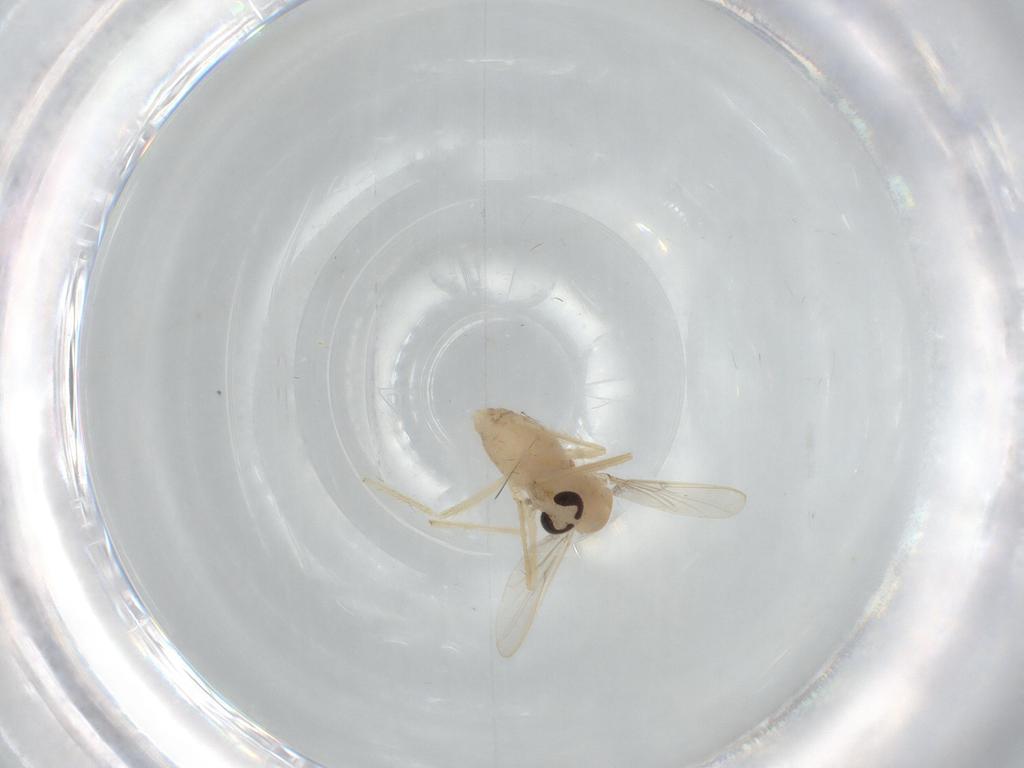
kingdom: Animalia
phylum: Arthropoda
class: Insecta
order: Diptera
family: Chironomidae
